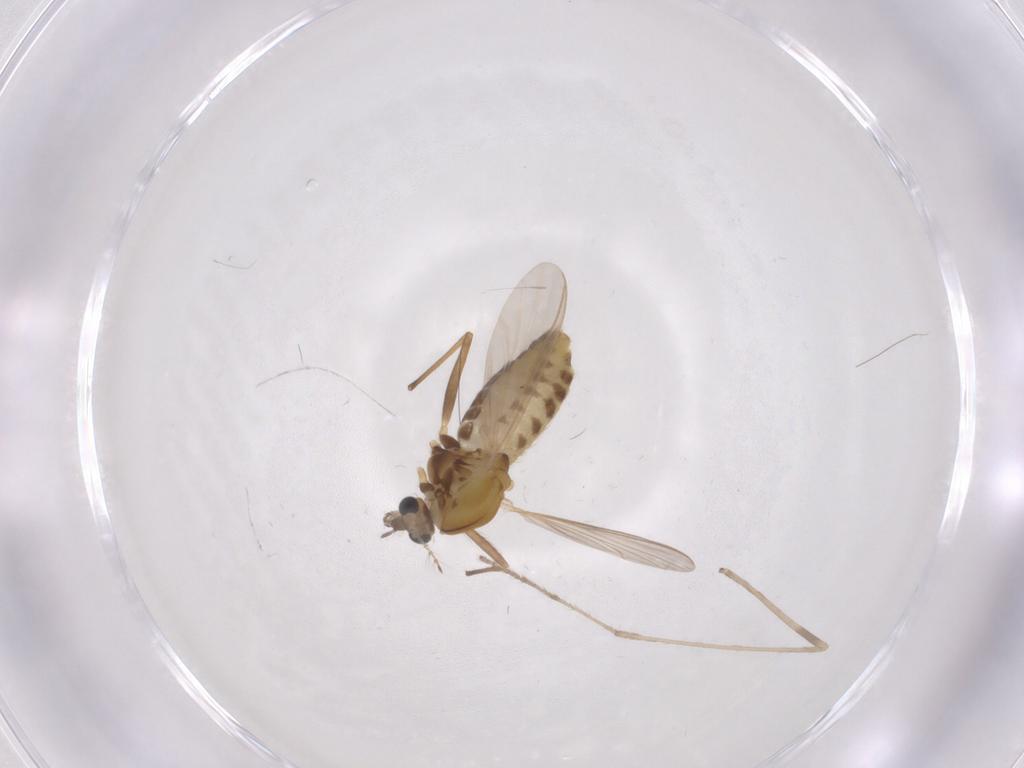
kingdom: Animalia
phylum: Arthropoda
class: Insecta
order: Diptera
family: Chironomidae
